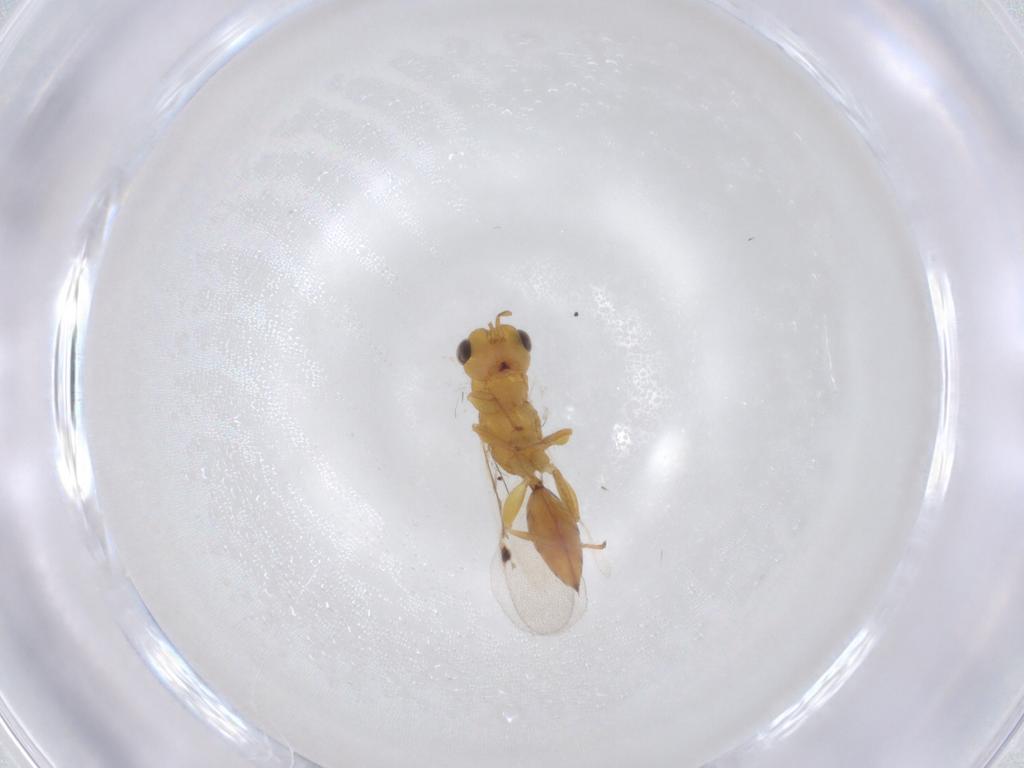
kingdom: Animalia
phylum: Arthropoda
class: Insecta
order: Hymenoptera
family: Eurytomidae
